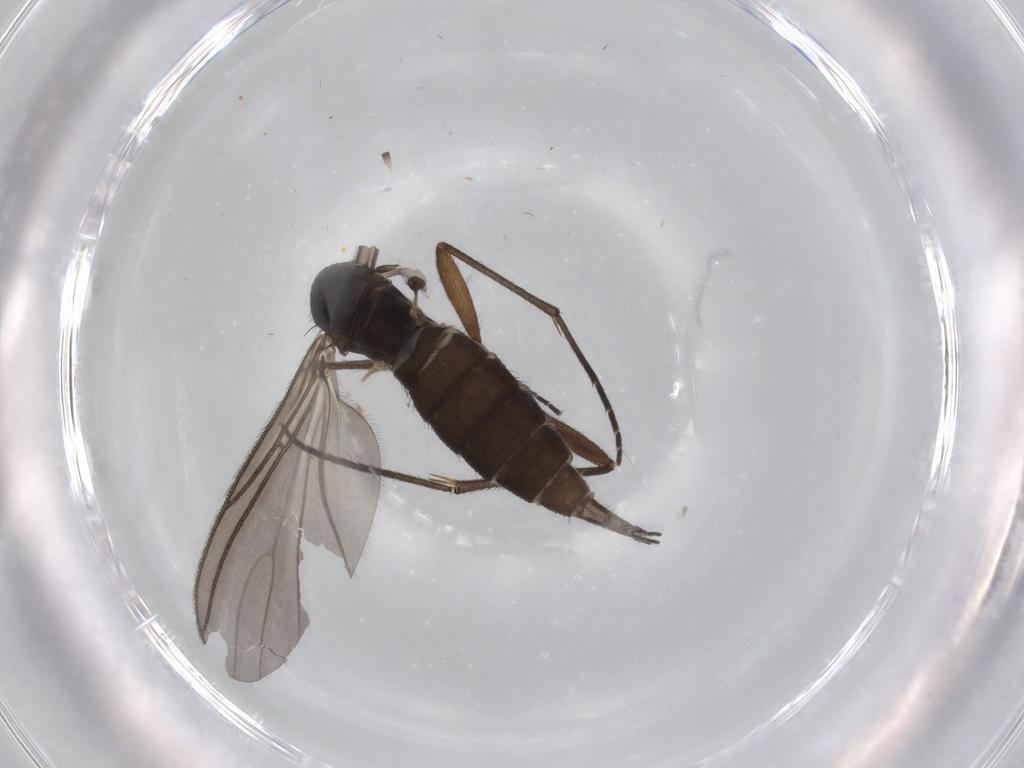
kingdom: Animalia
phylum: Arthropoda
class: Insecta
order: Diptera
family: Sciaridae
